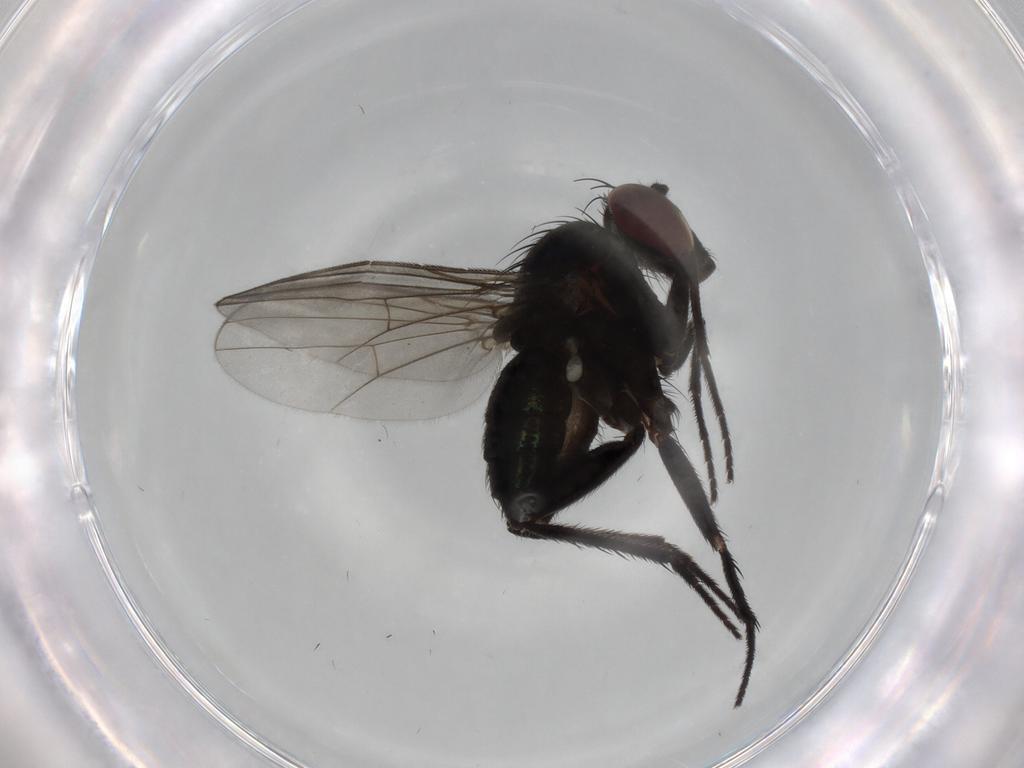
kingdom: Animalia
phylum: Arthropoda
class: Insecta
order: Diptera
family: Dolichopodidae
